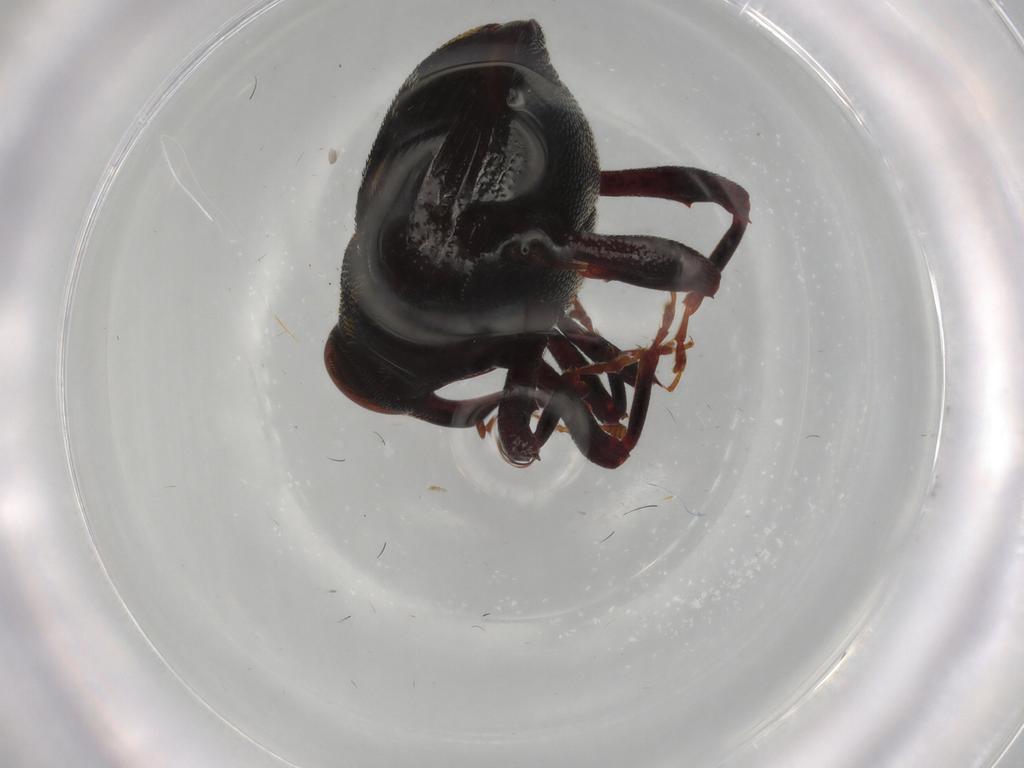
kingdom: Animalia
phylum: Arthropoda
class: Insecta
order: Coleoptera
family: Curculionidae
